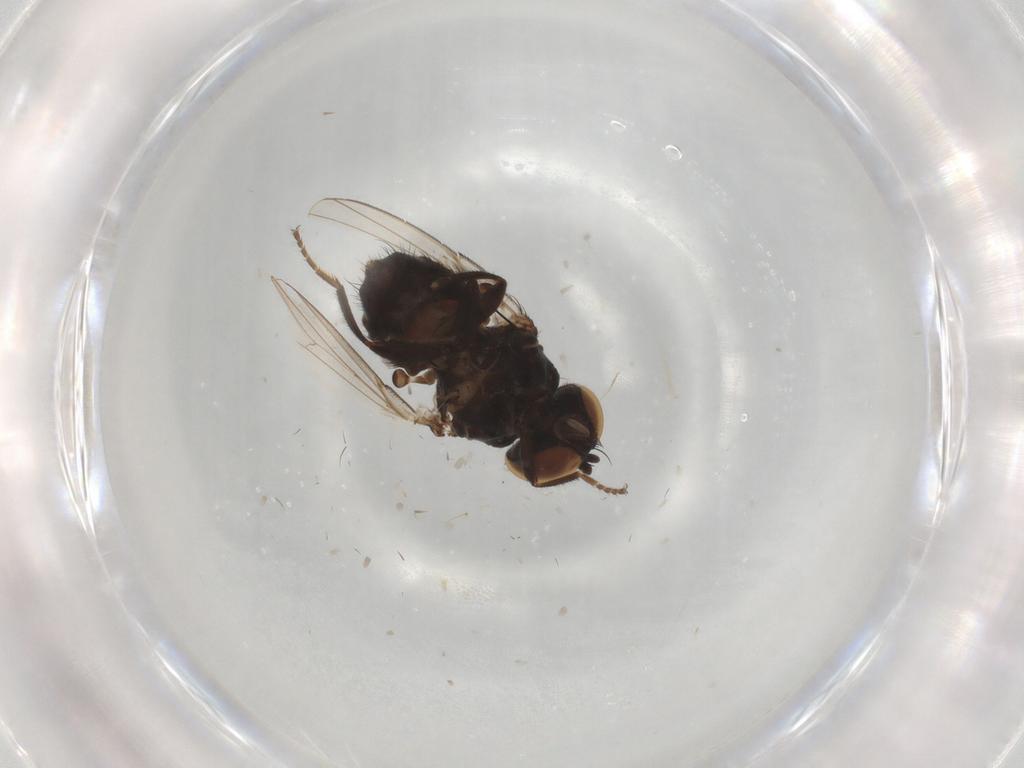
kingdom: Animalia
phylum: Arthropoda
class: Insecta
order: Diptera
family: Milichiidae
